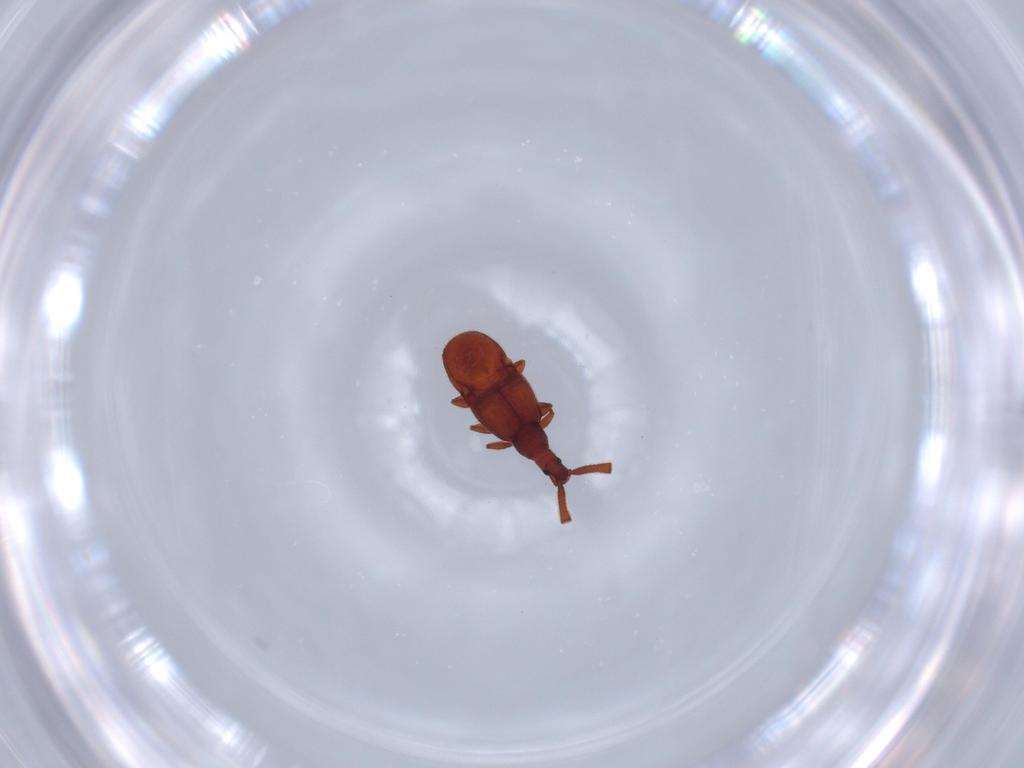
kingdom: Animalia
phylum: Arthropoda
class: Insecta
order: Coleoptera
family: Staphylinidae
